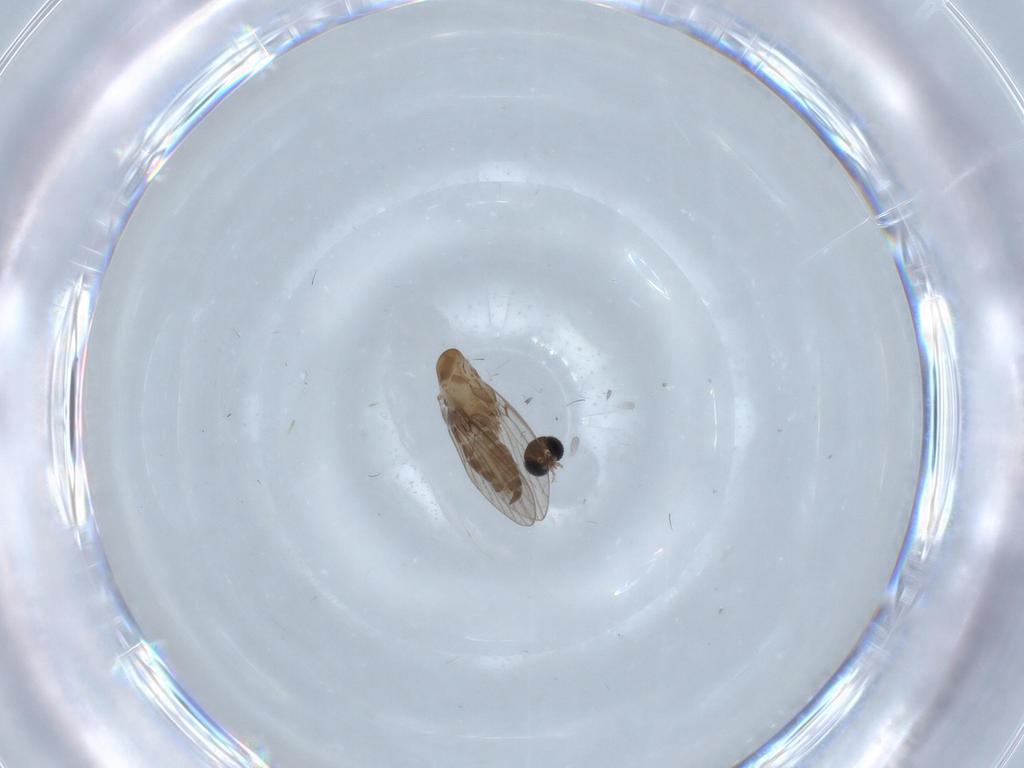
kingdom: Animalia
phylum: Arthropoda
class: Insecta
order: Diptera
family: Psychodidae
